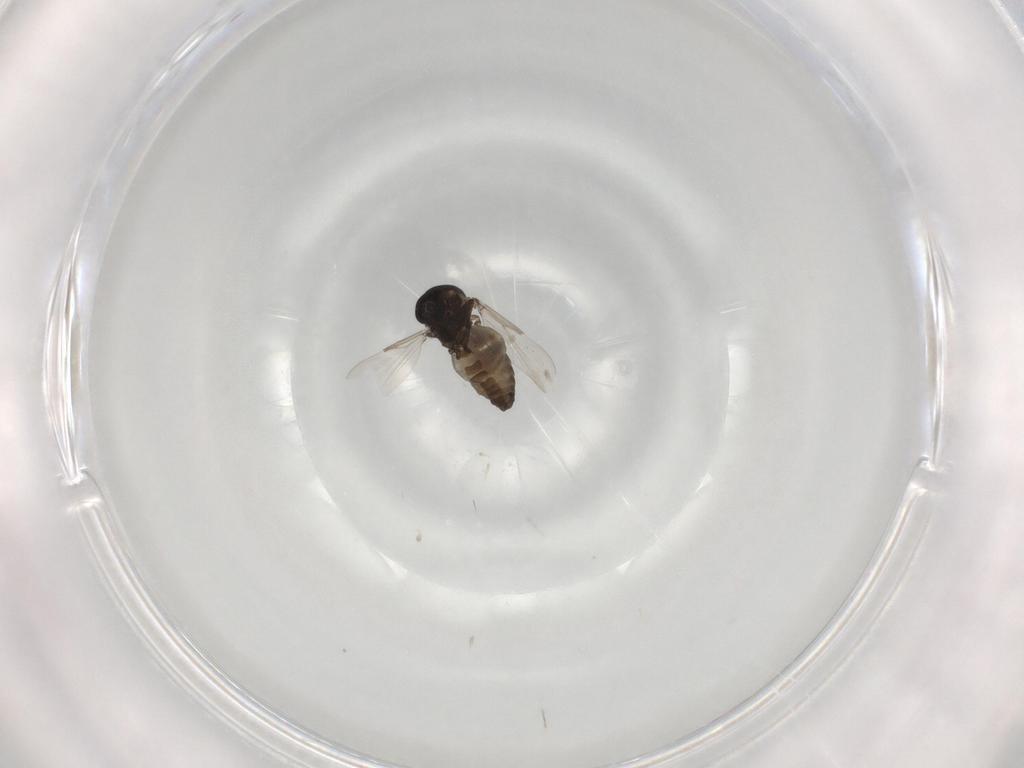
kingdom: Animalia
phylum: Arthropoda
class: Insecta
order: Diptera
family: Ceratopogonidae
